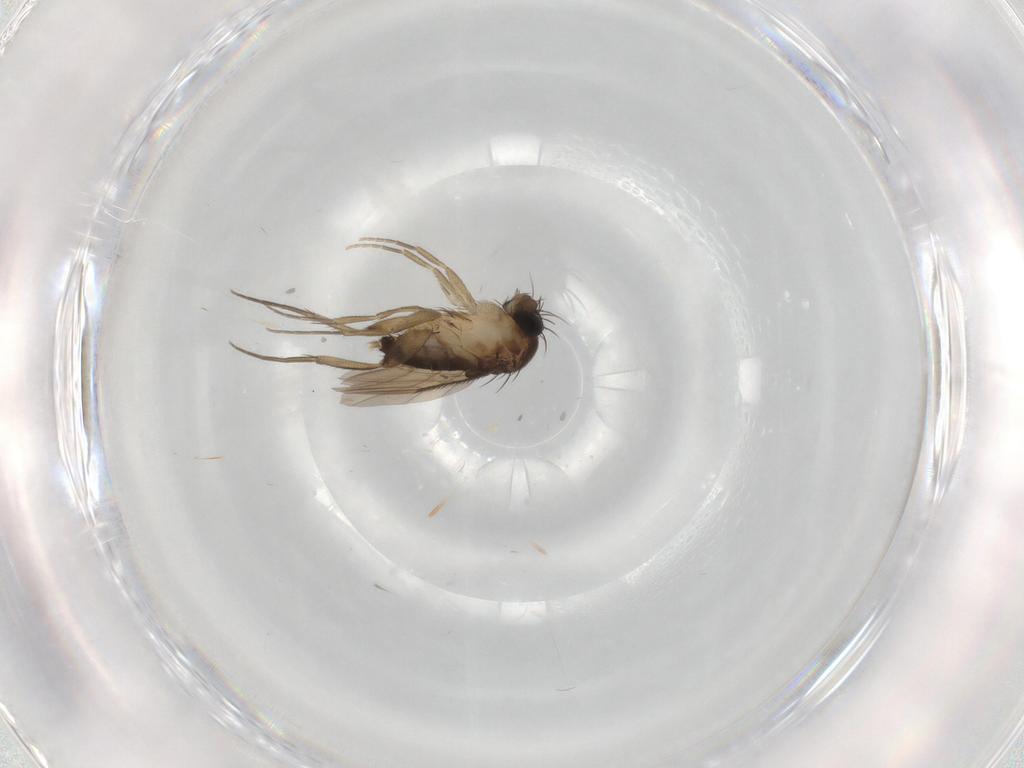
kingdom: Animalia
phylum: Arthropoda
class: Insecta
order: Diptera
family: Phoridae
